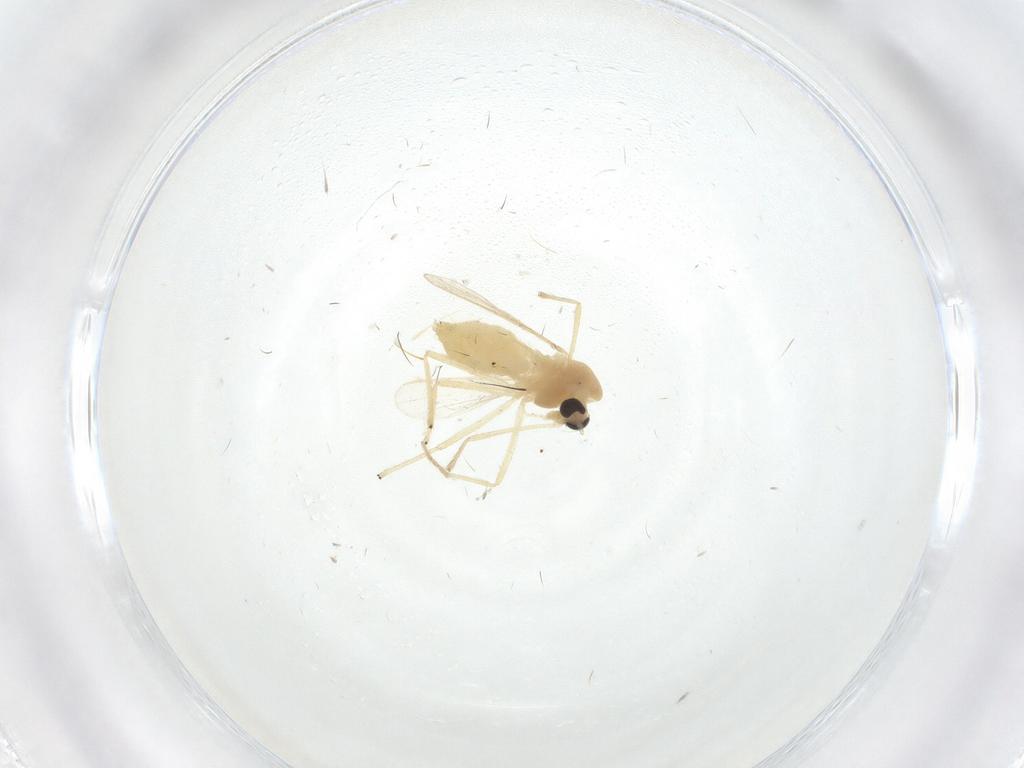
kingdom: Animalia
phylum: Arthropoda
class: Insecta
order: Diptera
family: Chironomidae
